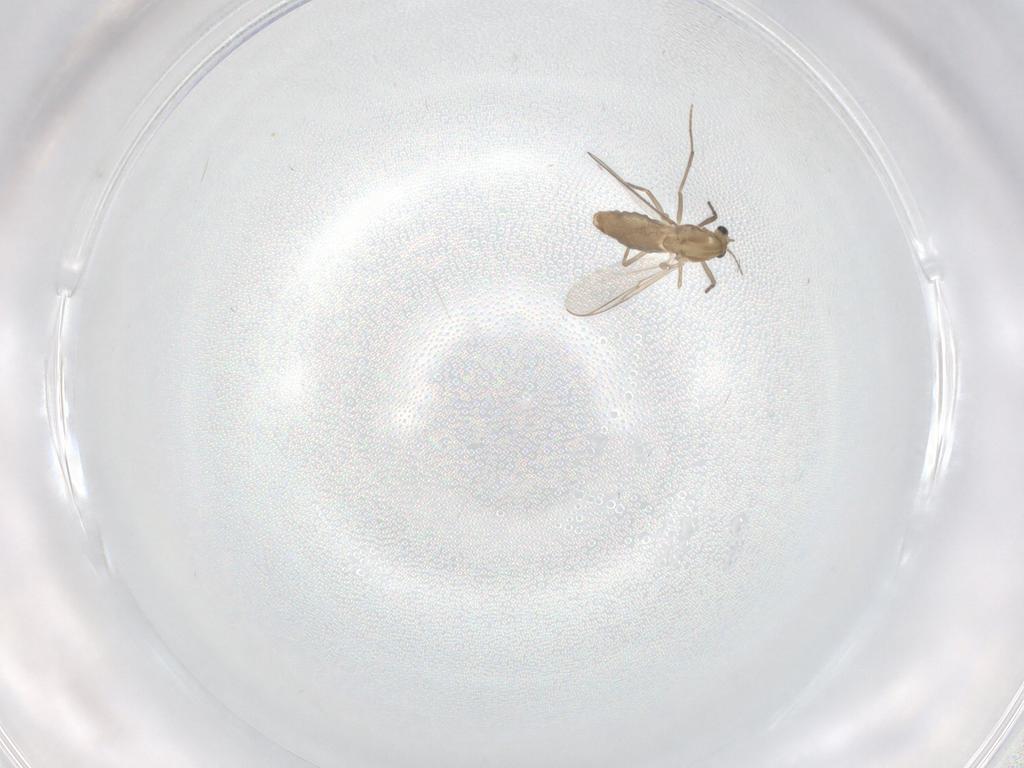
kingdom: Animalia
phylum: Arthropoda
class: Insecta
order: Diptera
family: Chironomidae
